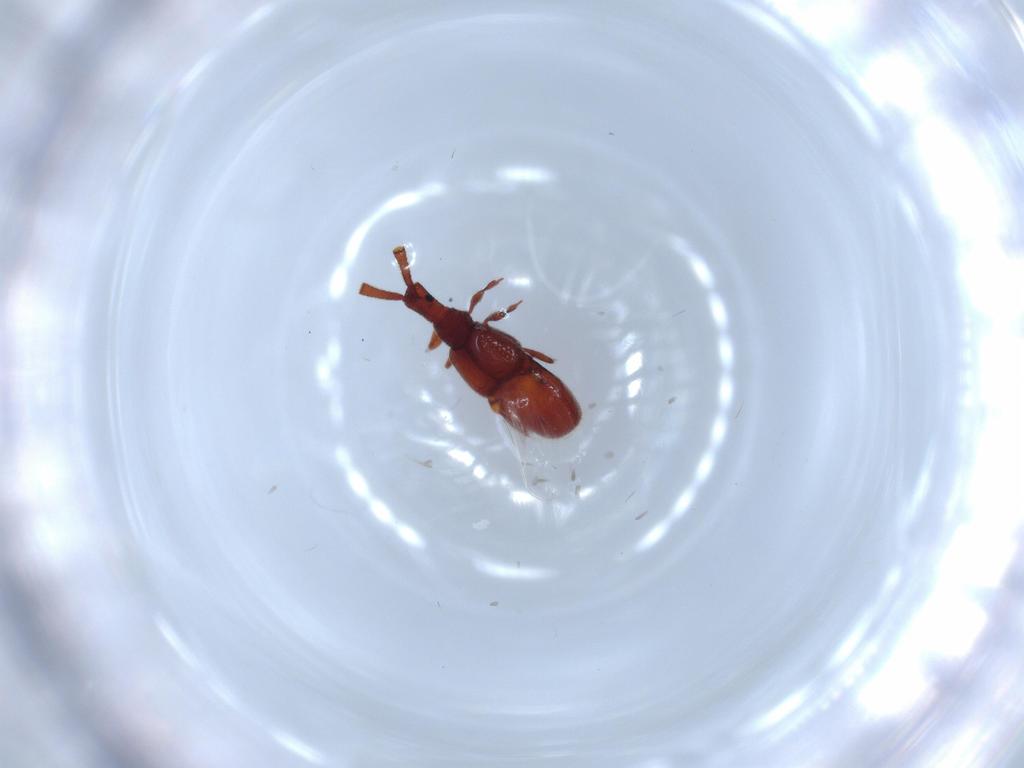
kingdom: Animalia
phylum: Arthropoda
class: Insecta
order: Coleoptera
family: Staphylinidae
